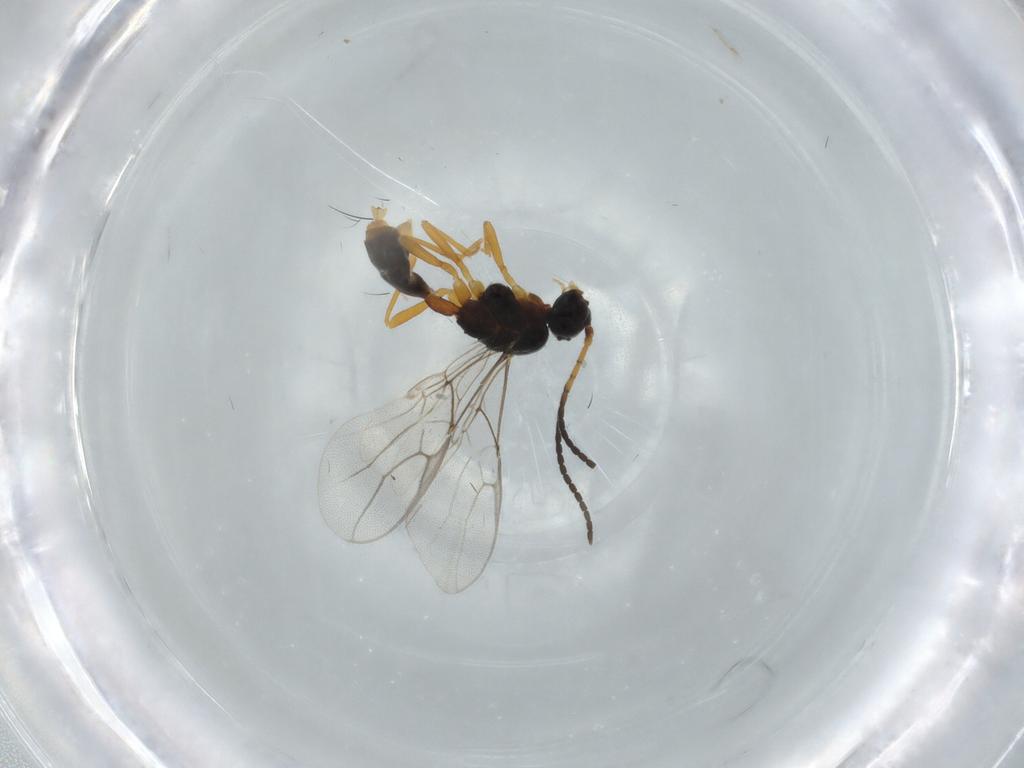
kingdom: Animalia
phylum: Arthropoda
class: Insecta
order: Hymenoptera
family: Braconidae
